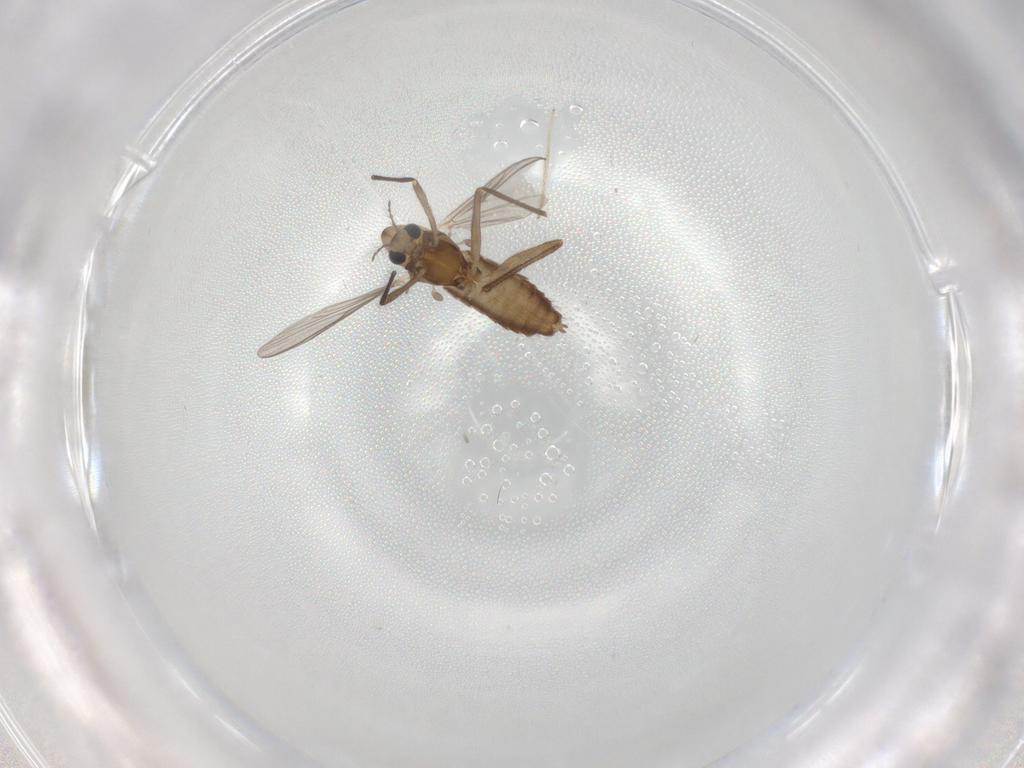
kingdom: Animalia
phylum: Arthropoda
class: Insecta
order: Diptera
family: Chironomidae
